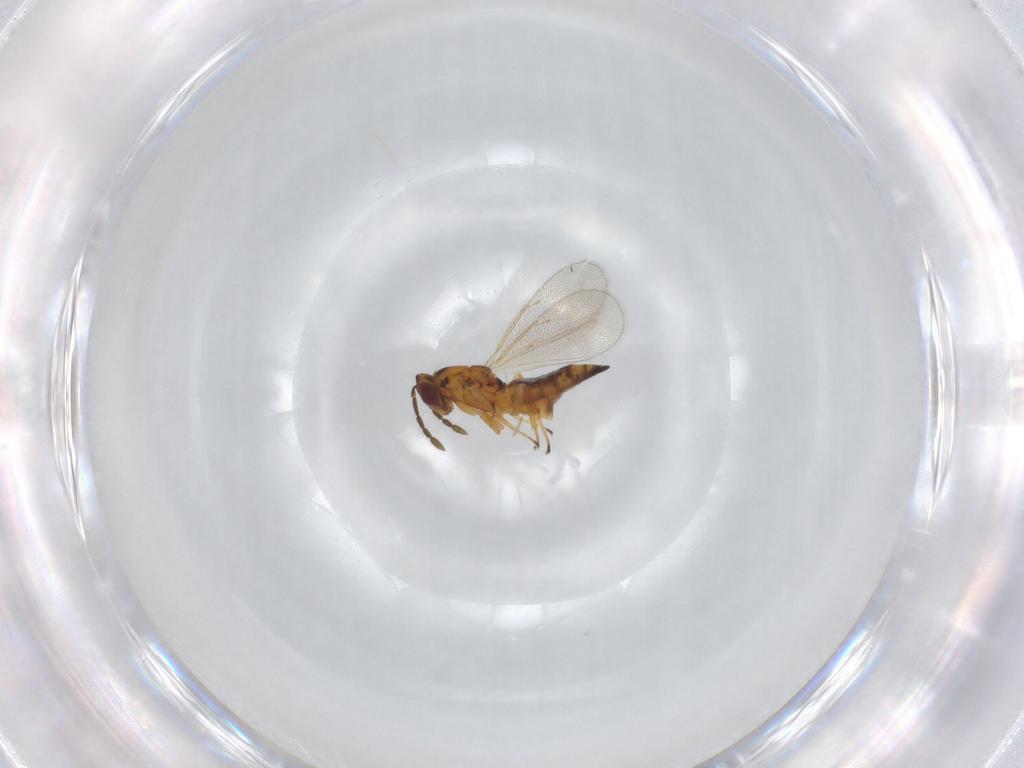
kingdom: Animalia
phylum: Arthropoda
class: Insecta
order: Hymenoptera
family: Eulophidae
